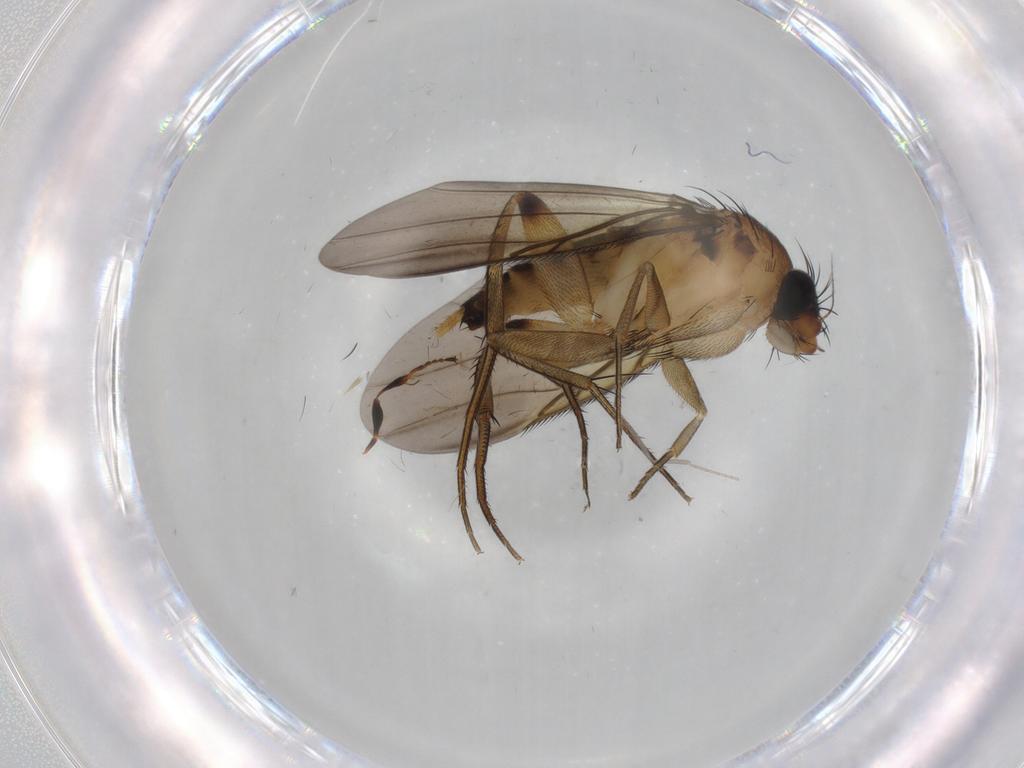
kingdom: Animalia
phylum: Arthropoda
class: Insecta
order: Diptera
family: Chironomidae
